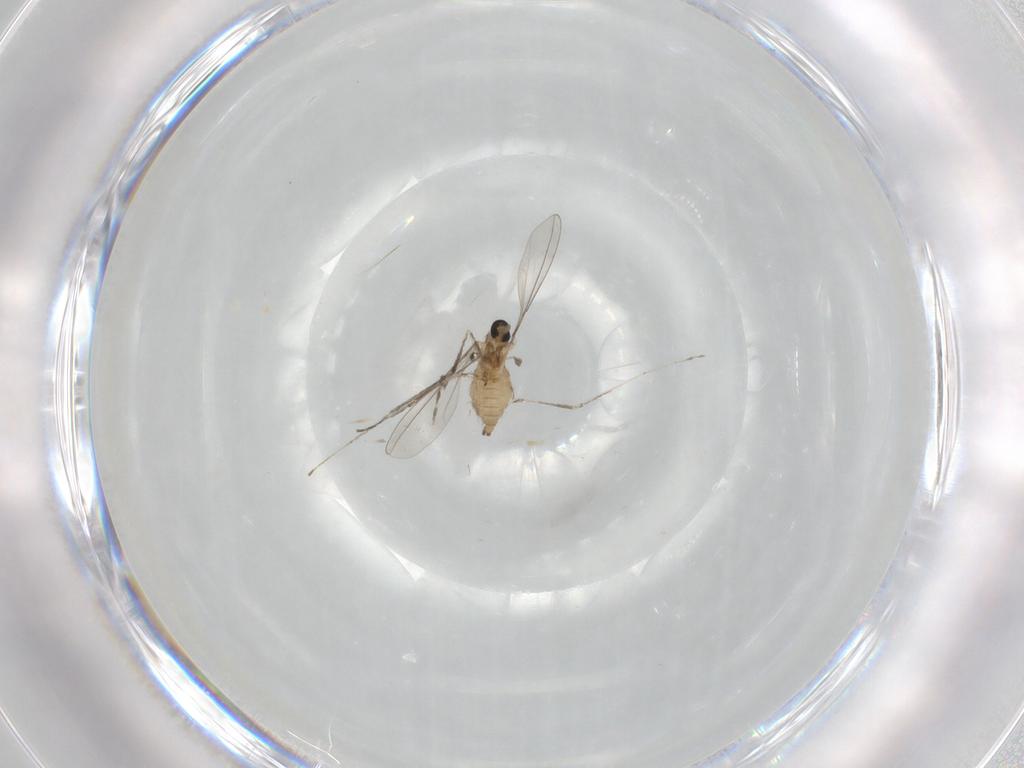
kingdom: Animalia
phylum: Arthropoda
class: Insecta
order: Diptera
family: Cecidomyiidae
